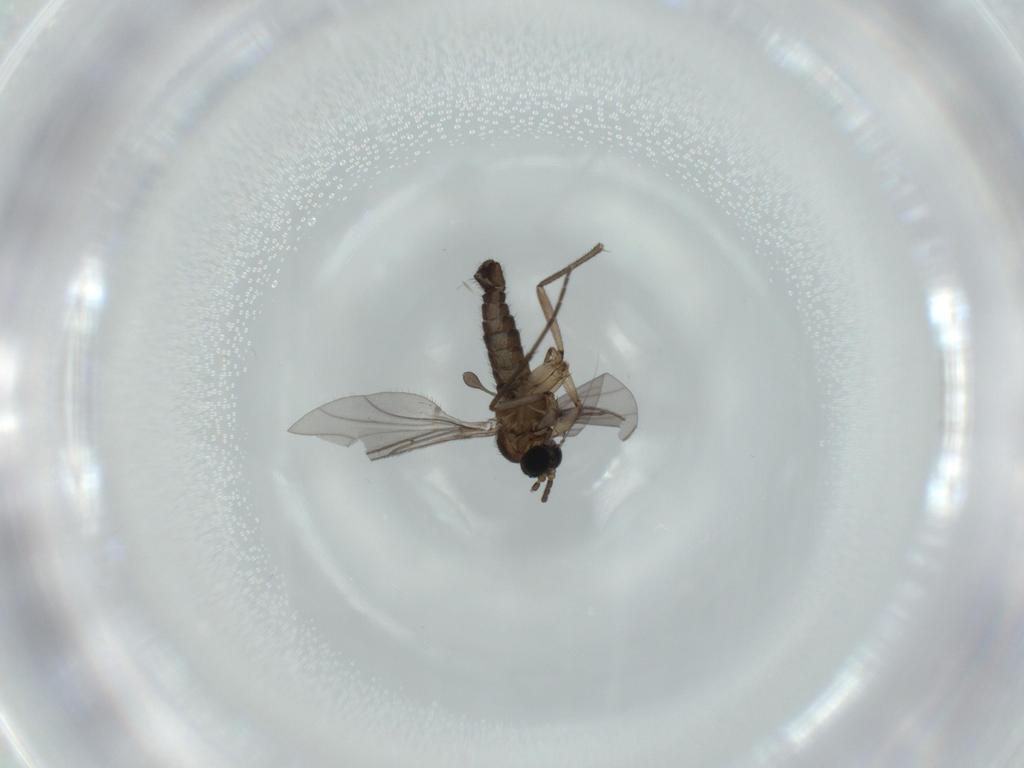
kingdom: Animalia
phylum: Arthropoda
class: Insecta
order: Diptera
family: Sciaridae
